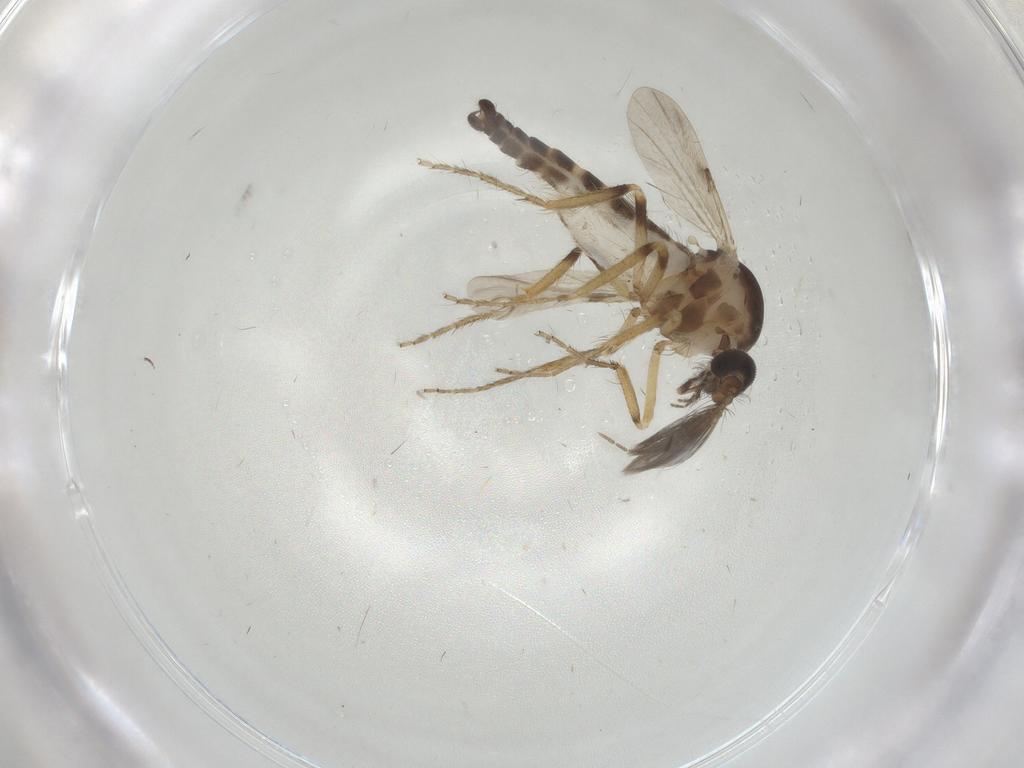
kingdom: Animalia
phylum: Arthropoda
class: Insecta
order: Diptera
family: Ceratopogonidae
